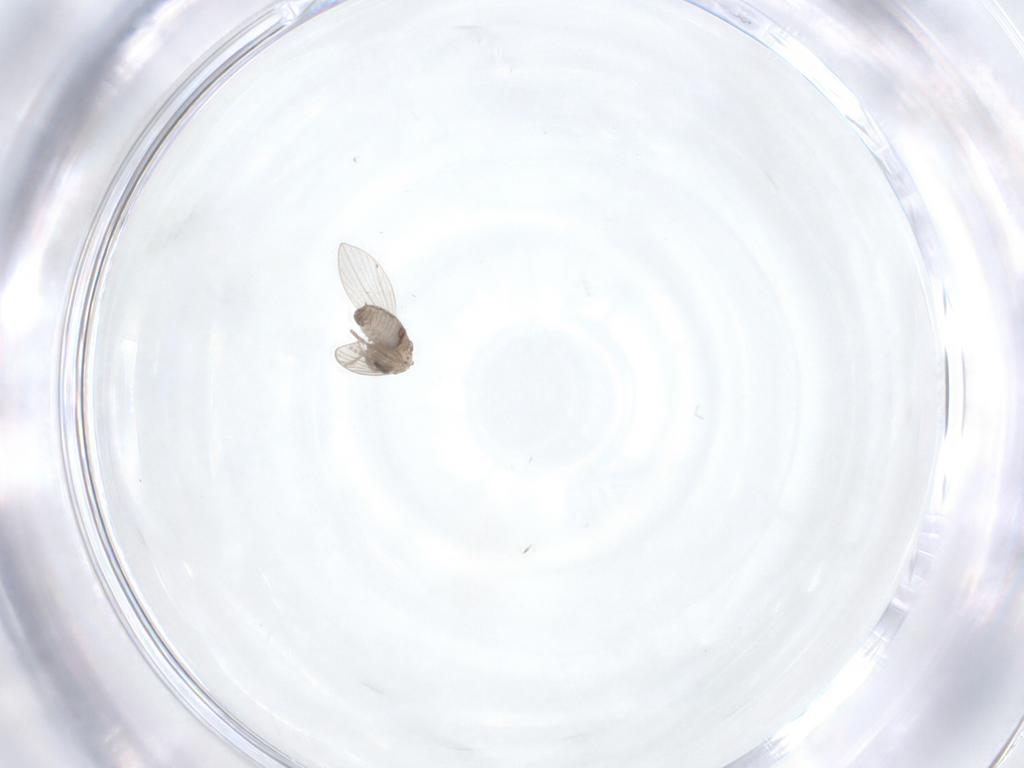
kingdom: Animalia
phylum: Arthropoda
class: Insecta
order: Diptera
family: Psychodidae
